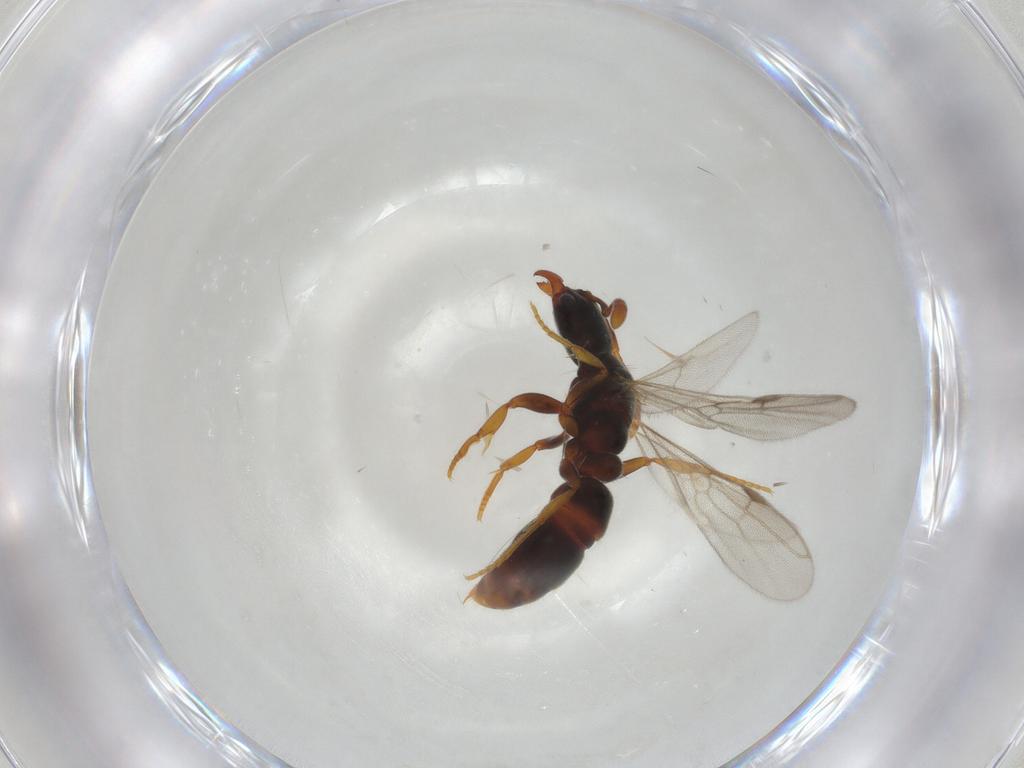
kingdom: Animalia
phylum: Arthropoda
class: Insecta
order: Hymenoptera
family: Formicidae
